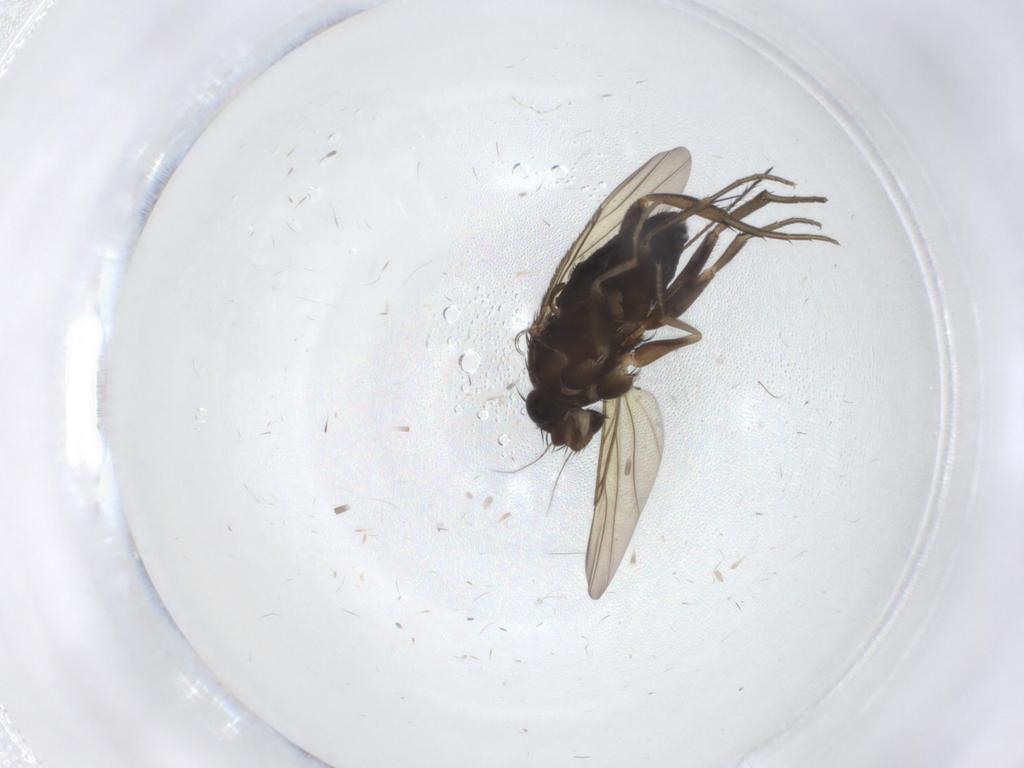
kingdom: Animalia
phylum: Arthropoda
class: Insecta
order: Diptera
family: Phoridae
